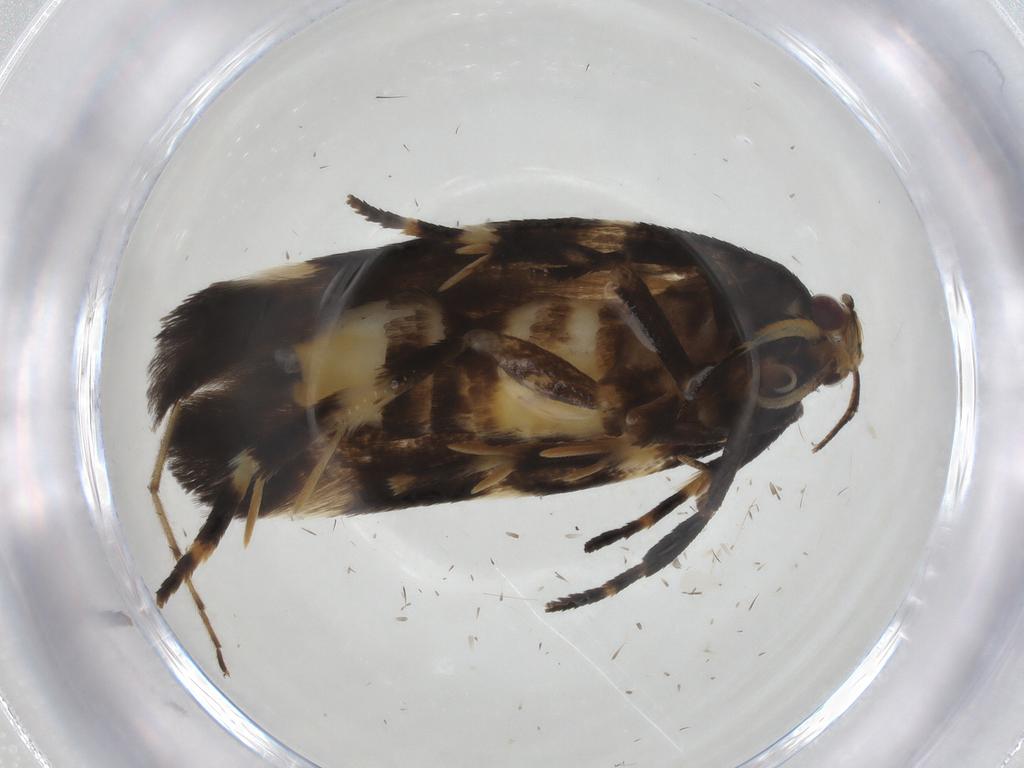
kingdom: Animalia
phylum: Arthropoda
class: Insecta
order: Lepidoptera
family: Cosmopterigidae
